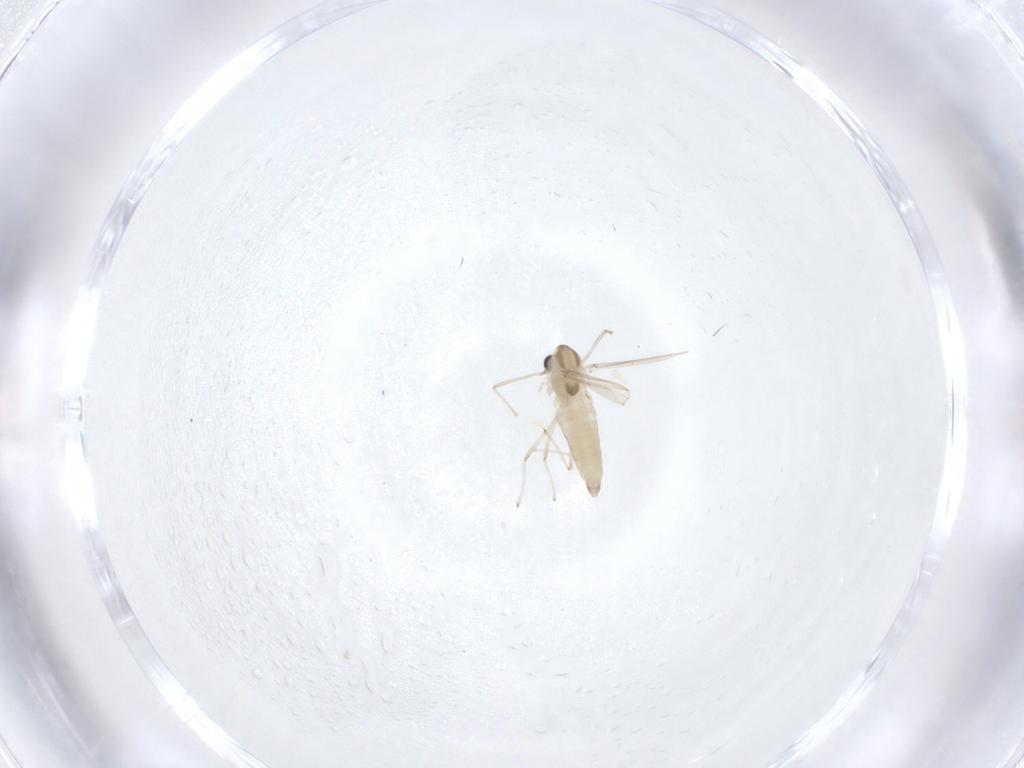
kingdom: Animalia
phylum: Arthropoda
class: Insecta
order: Diptera
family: Chironomidae
